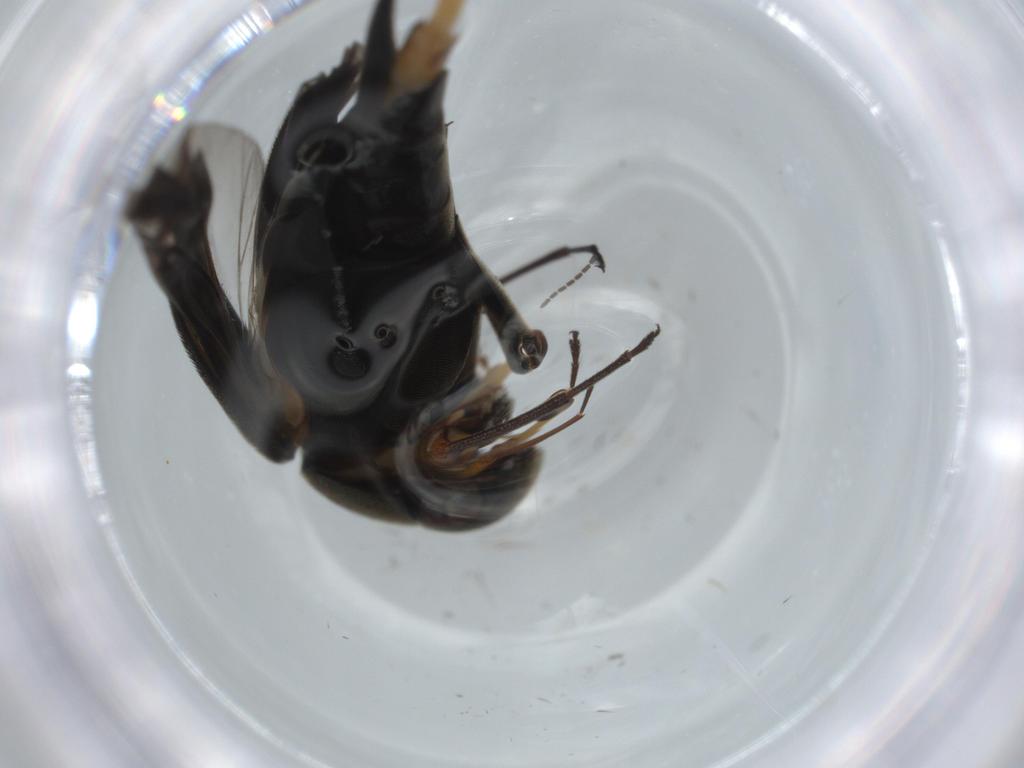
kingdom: Animalia
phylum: Arthropoda
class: Insecta
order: Coleoptera
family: Mordellidae
